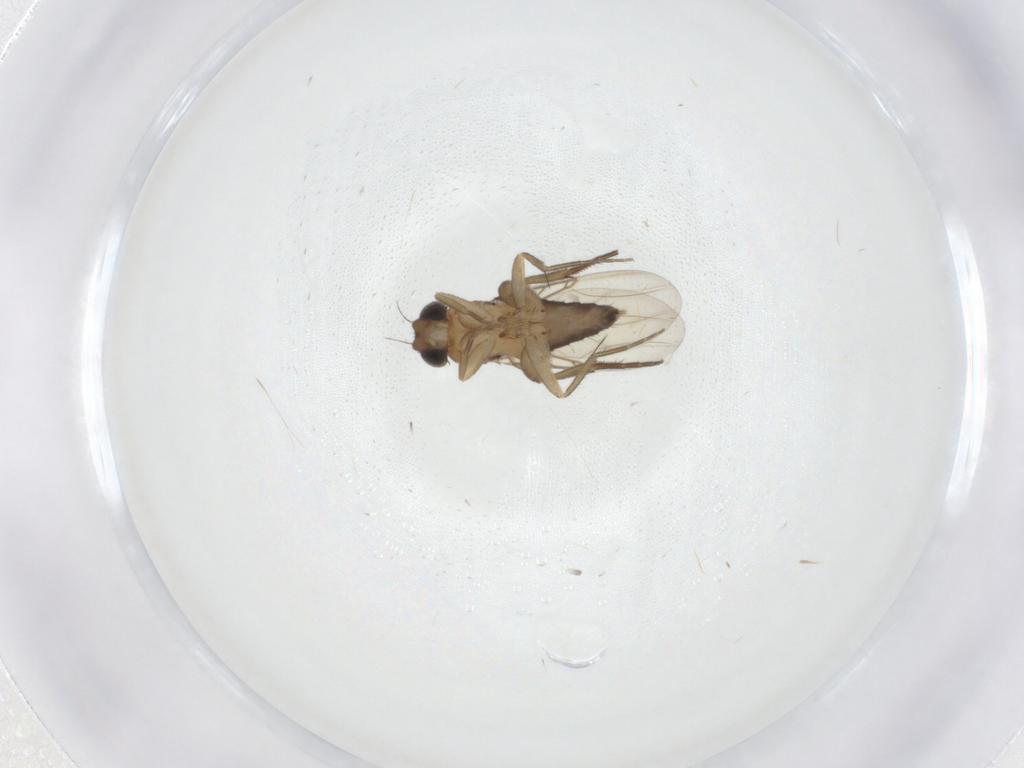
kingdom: Animalia
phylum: Arthropoda
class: Insecta
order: Diptera
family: Phoridae
